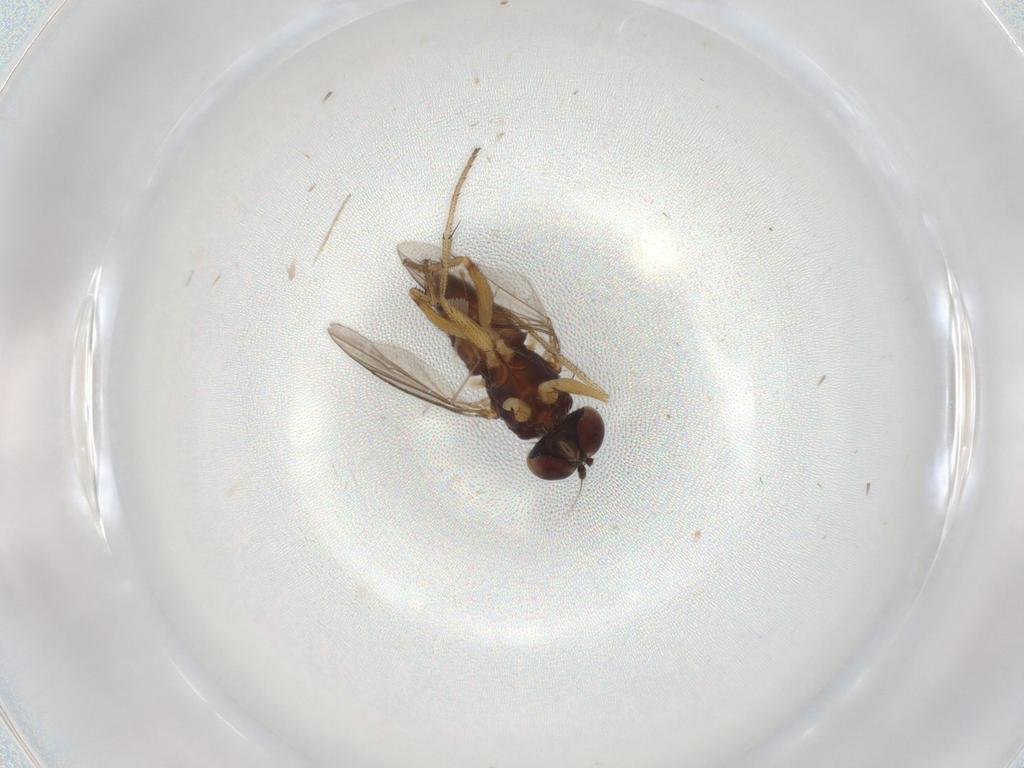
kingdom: Animalia
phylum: Arthropoda
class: Insecta
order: Diptera
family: Anisopodidae
